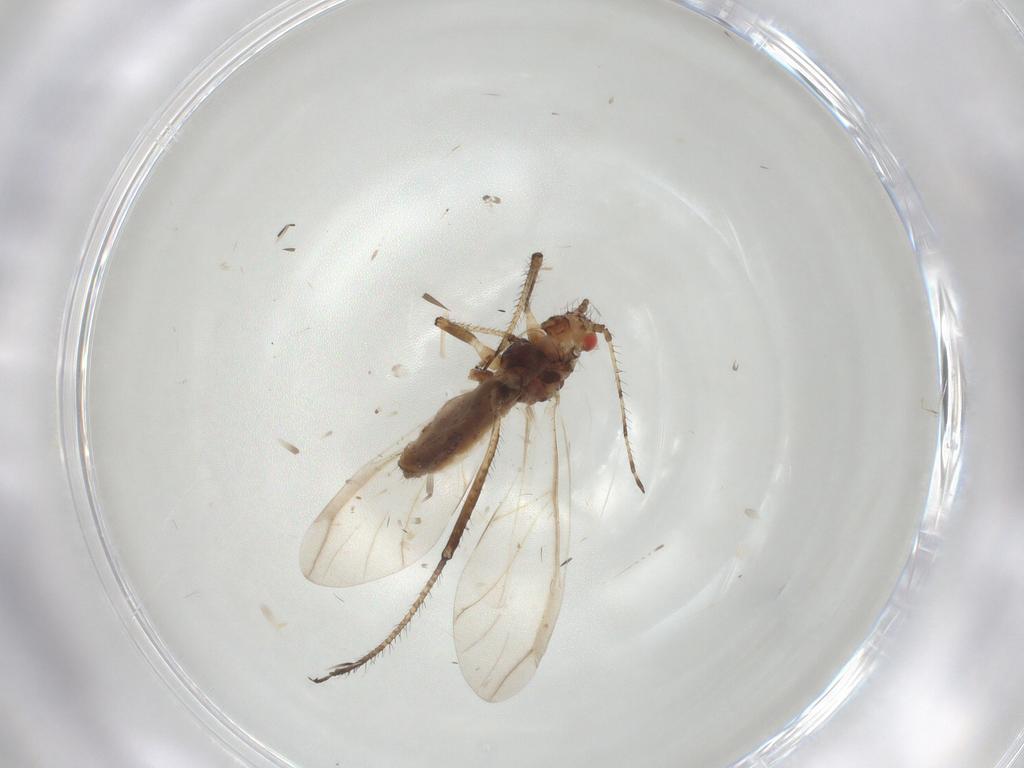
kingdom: Animalia
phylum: Arthropoda
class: Insecta
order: Hemiptera
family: Aphididae
